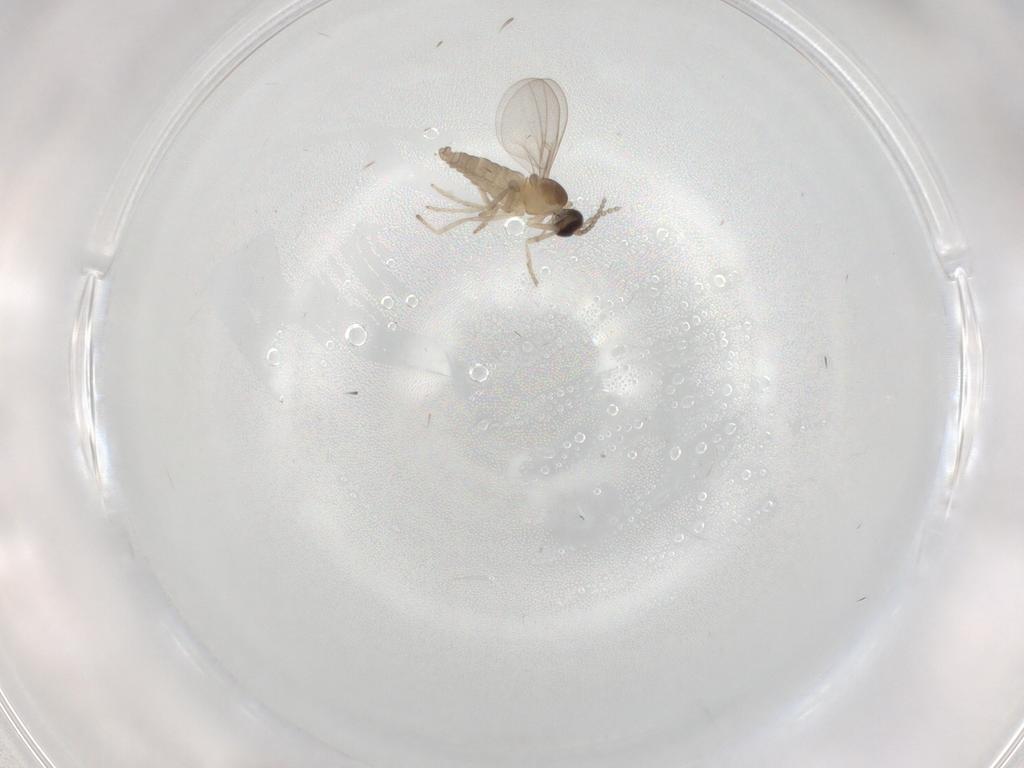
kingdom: Animalia
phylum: Arthropoda
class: Insecta
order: Diptera
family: Cecidomyiidae
